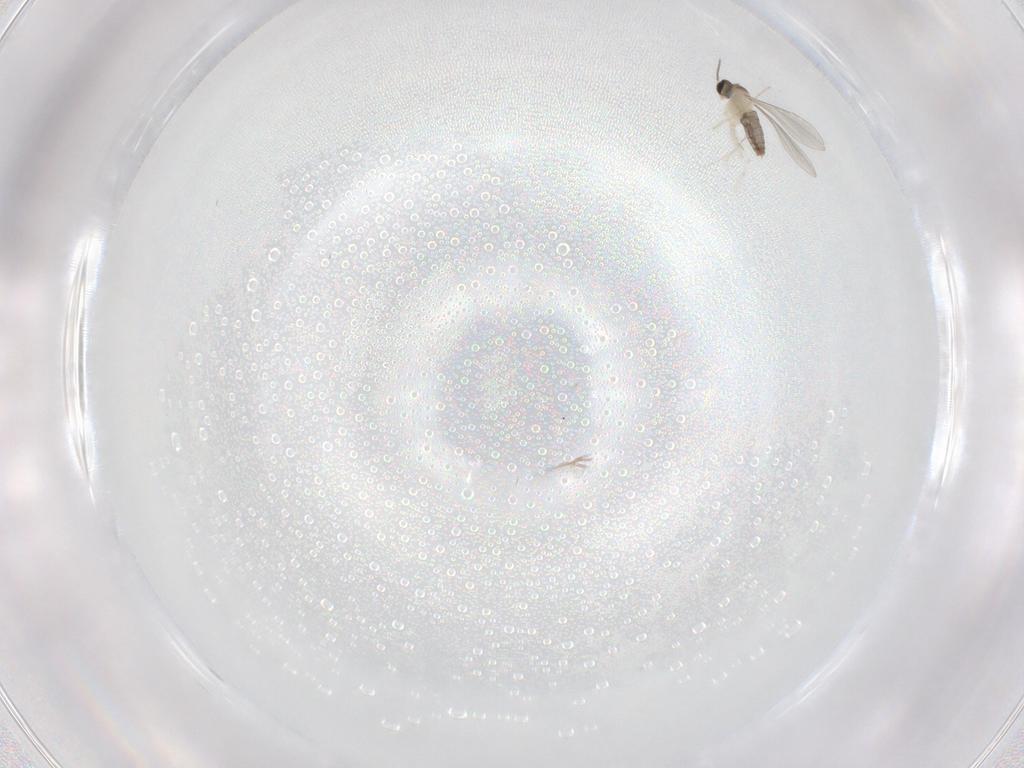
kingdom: Animalia
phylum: Arthropoda
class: Insecta
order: Diptera
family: Cecidomyiidae
